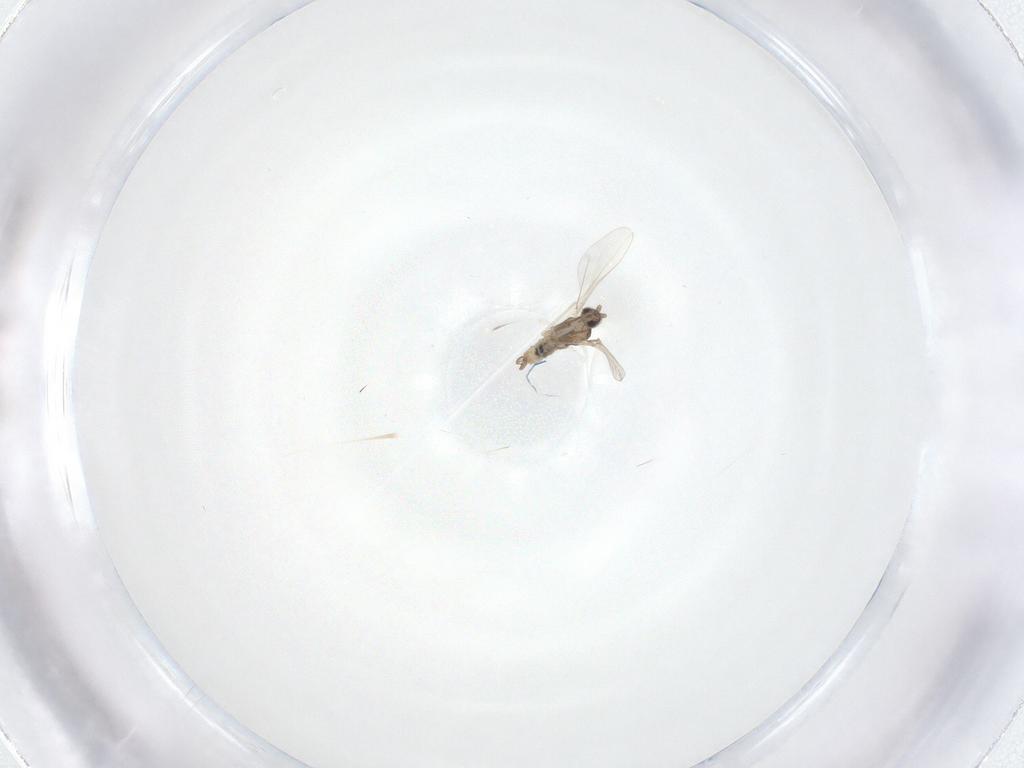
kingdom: Animalia
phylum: Arthropoda
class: Insecta
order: Diptera
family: Cecidomyiidae
